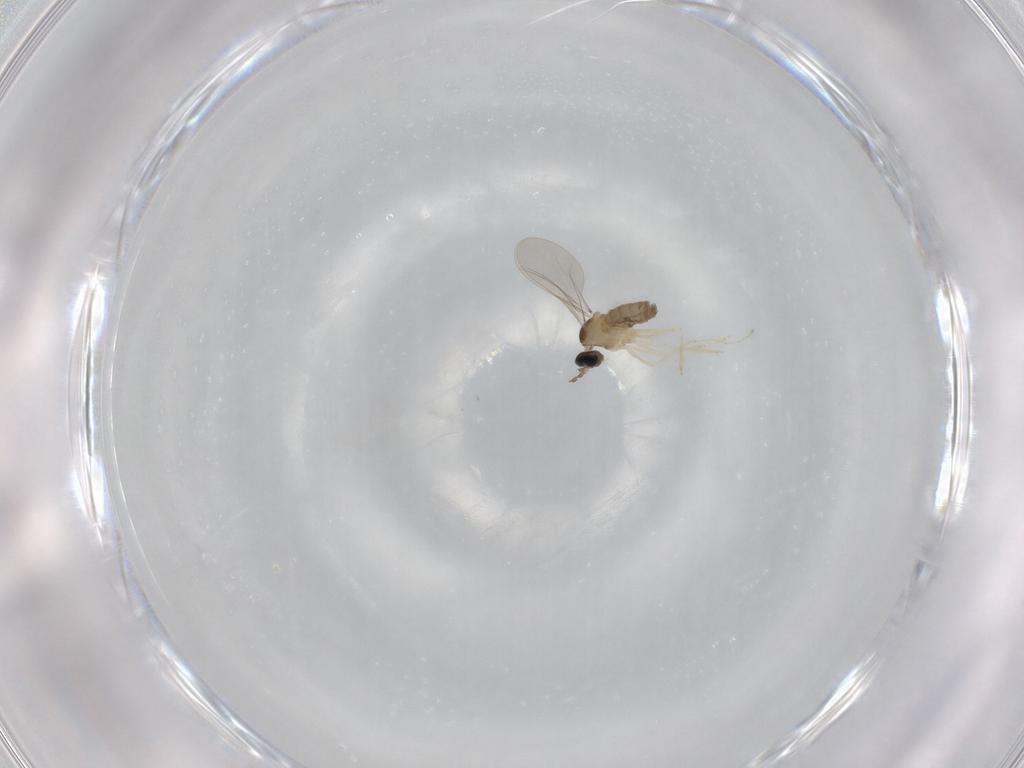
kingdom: Animalia
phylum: Arthropoda
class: Insecta
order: Diptera
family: Cecidomyiidae
